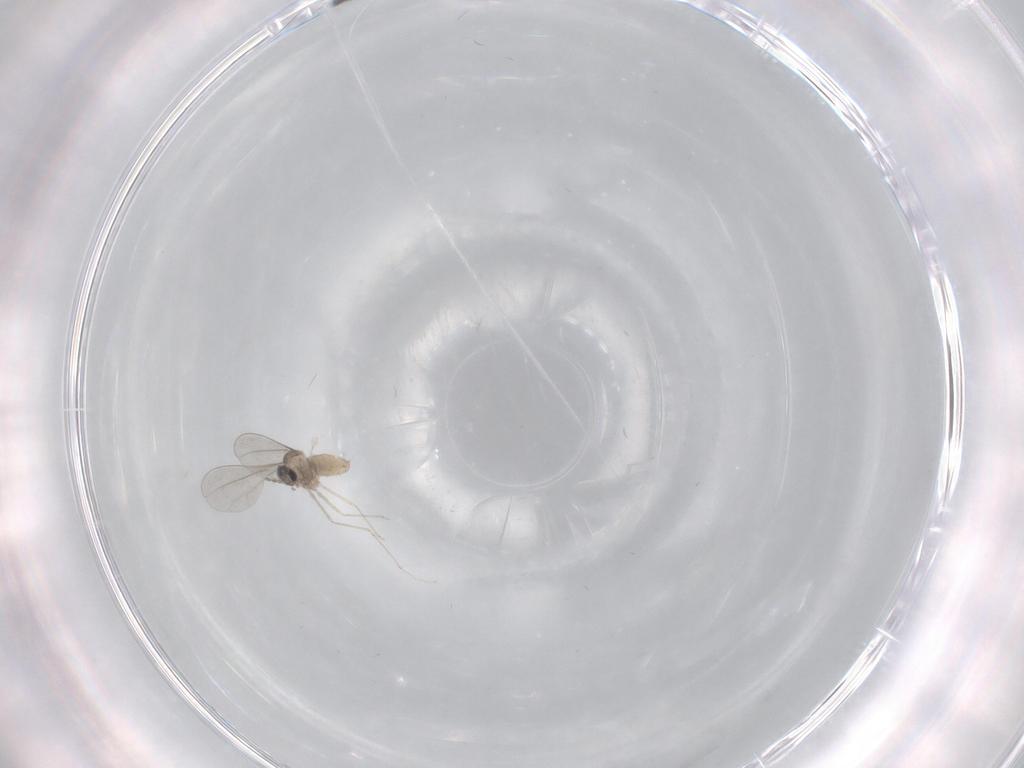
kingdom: Animalia
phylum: Arthropoda
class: Insecta
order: Diptera
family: Cecidomyiidae
